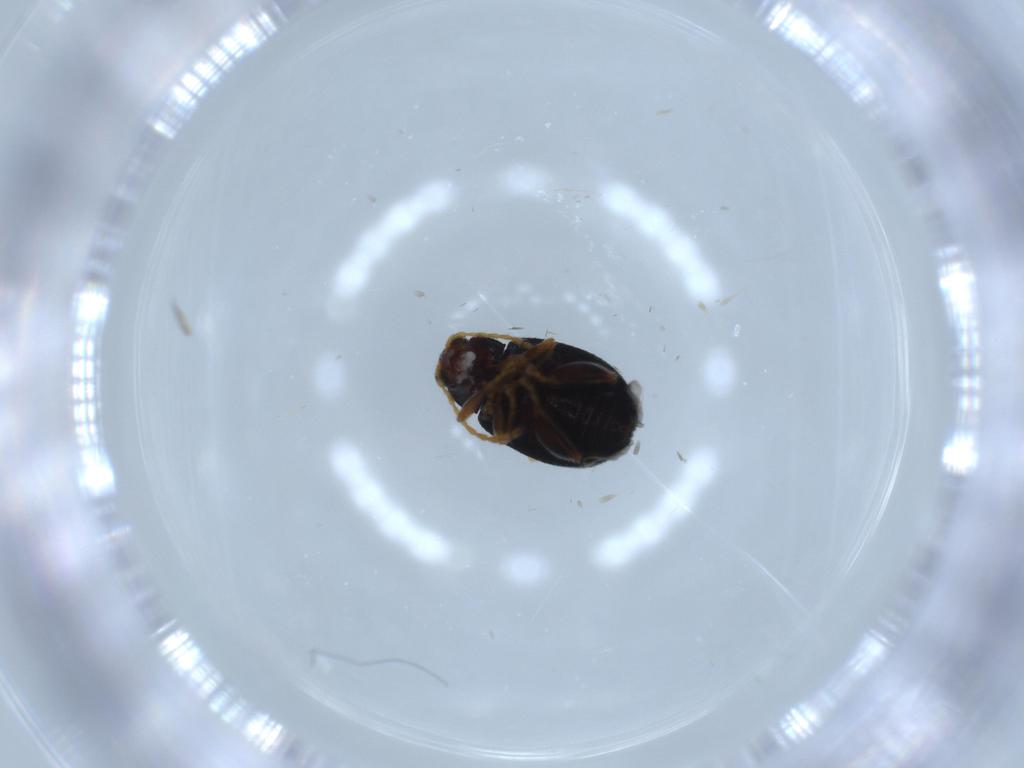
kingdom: Animalia
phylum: Arthropoda
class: Insecta
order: Coleoptera
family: Chrysomelidae
